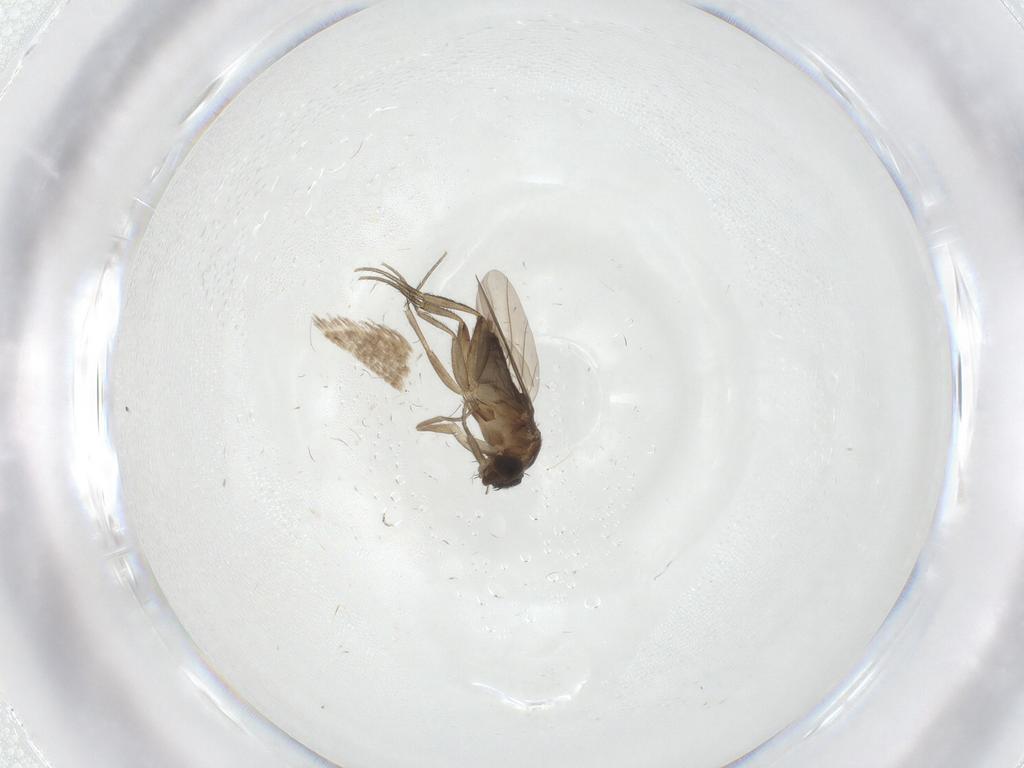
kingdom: Animalia
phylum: Arthropoda
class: Insecta
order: Diptera
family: Phoridae
